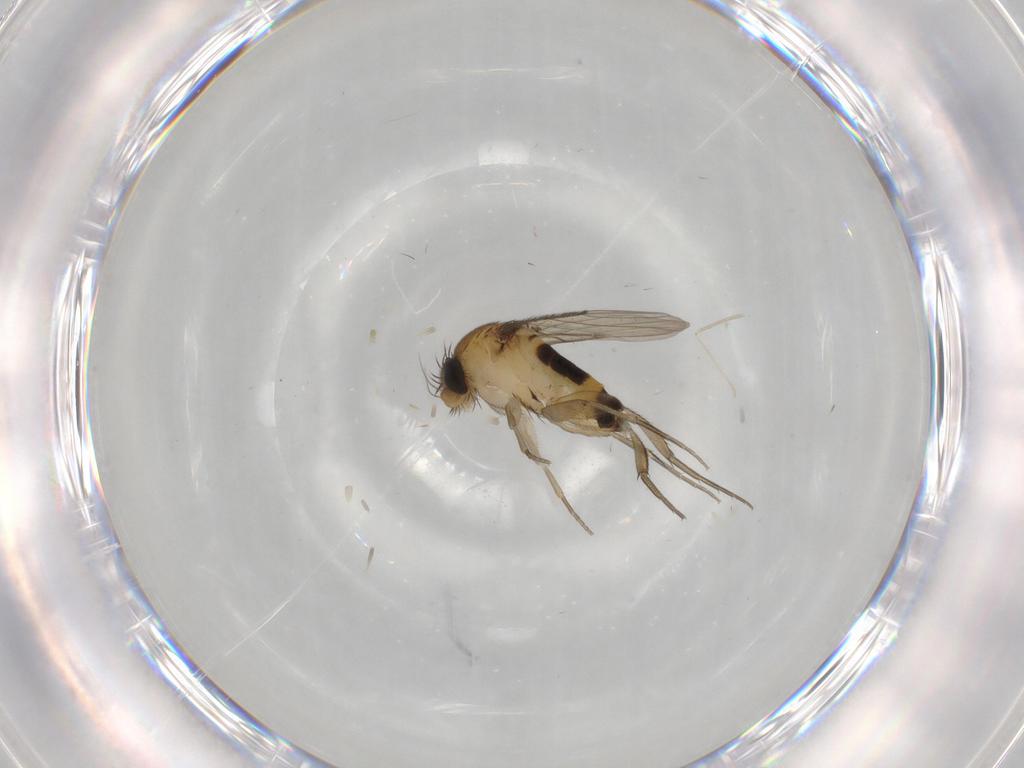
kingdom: Animalia
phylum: Arthropoda
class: Insecta
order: Diptera
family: Phoridae
